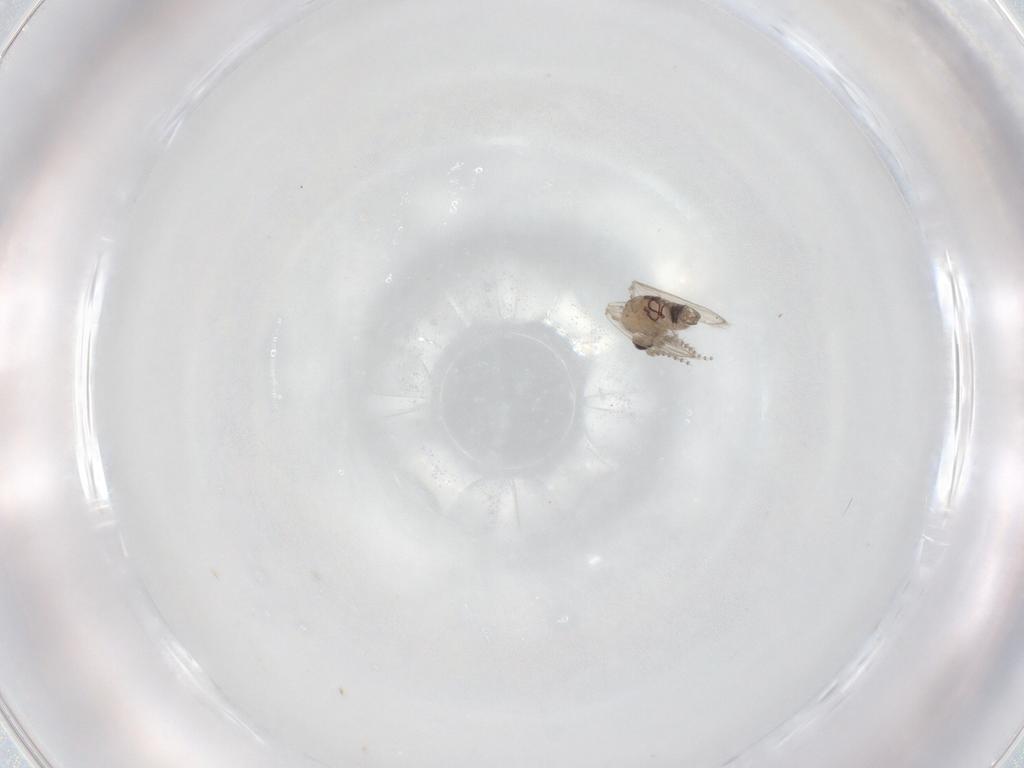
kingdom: Animalia
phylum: Arthropoda
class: Insecta
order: Diptera
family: Psychodidae
